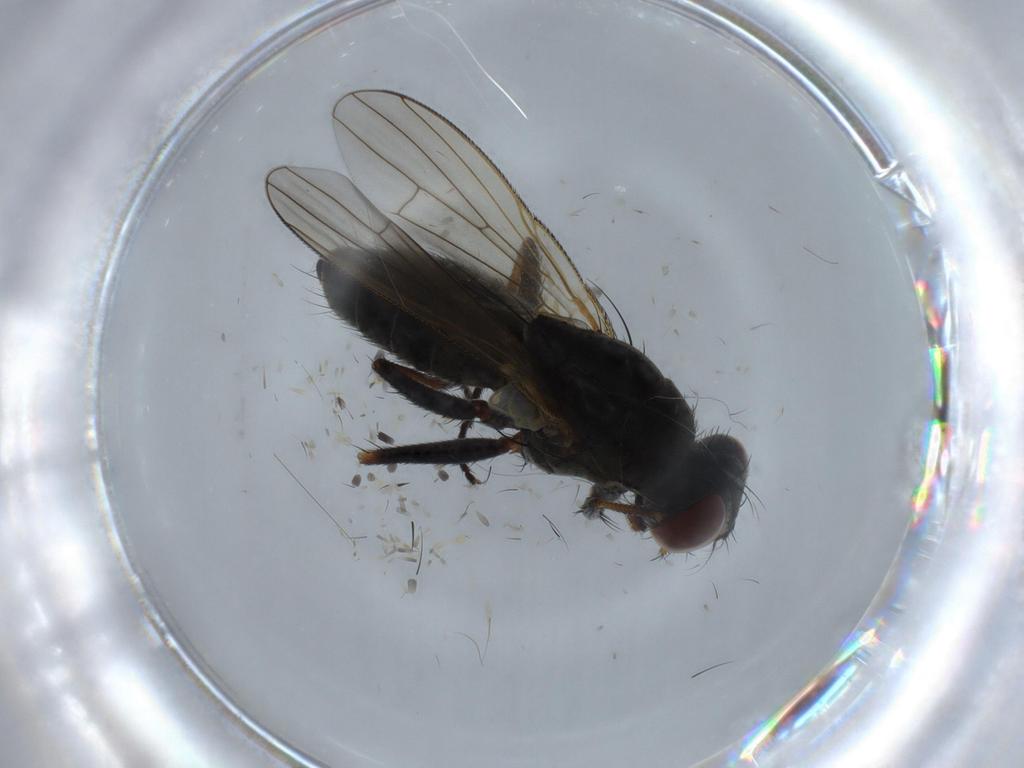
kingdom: Animalia
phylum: Arthropoda
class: Insecta
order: Diptera
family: Muscidae
